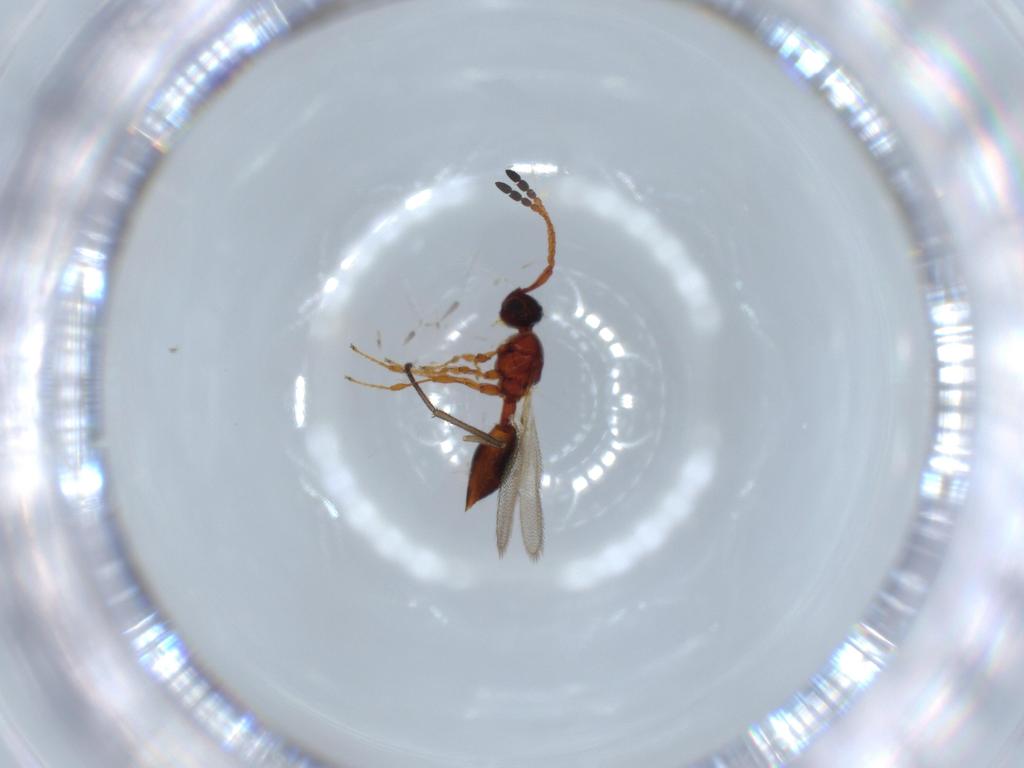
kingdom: Animalia
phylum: Arthropoda
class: Insecta
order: Hymenoptera
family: Diapriidae
